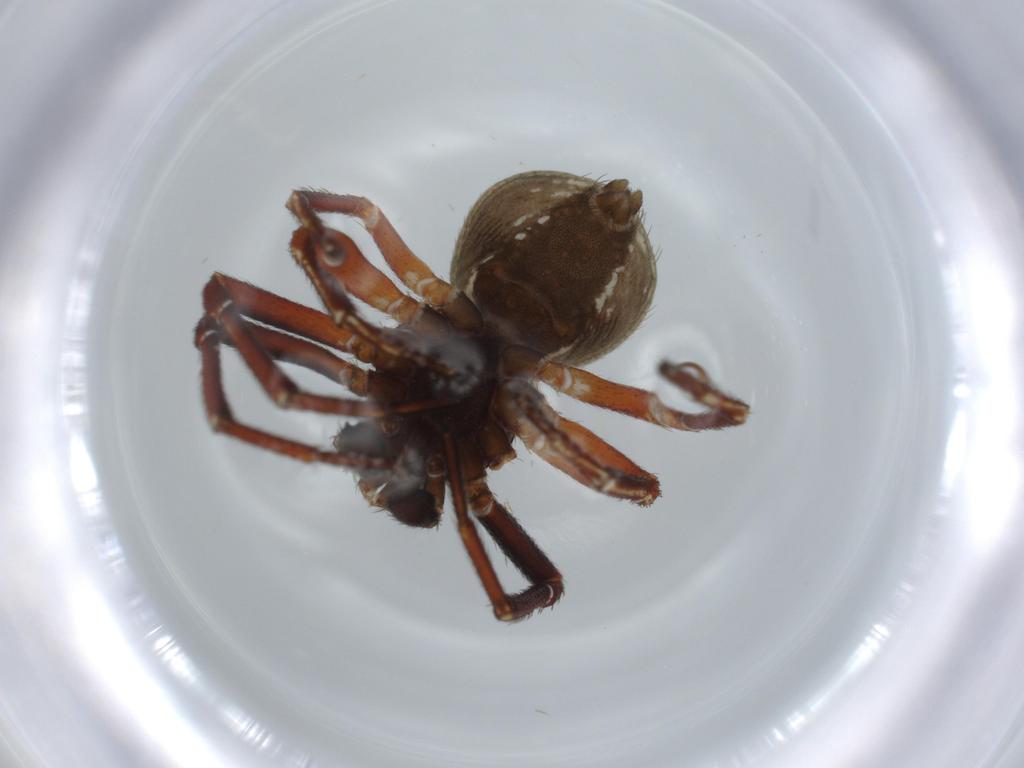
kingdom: Animalia
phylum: Arthropoda
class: Arachnida
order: Araneae
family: Thomisidae
